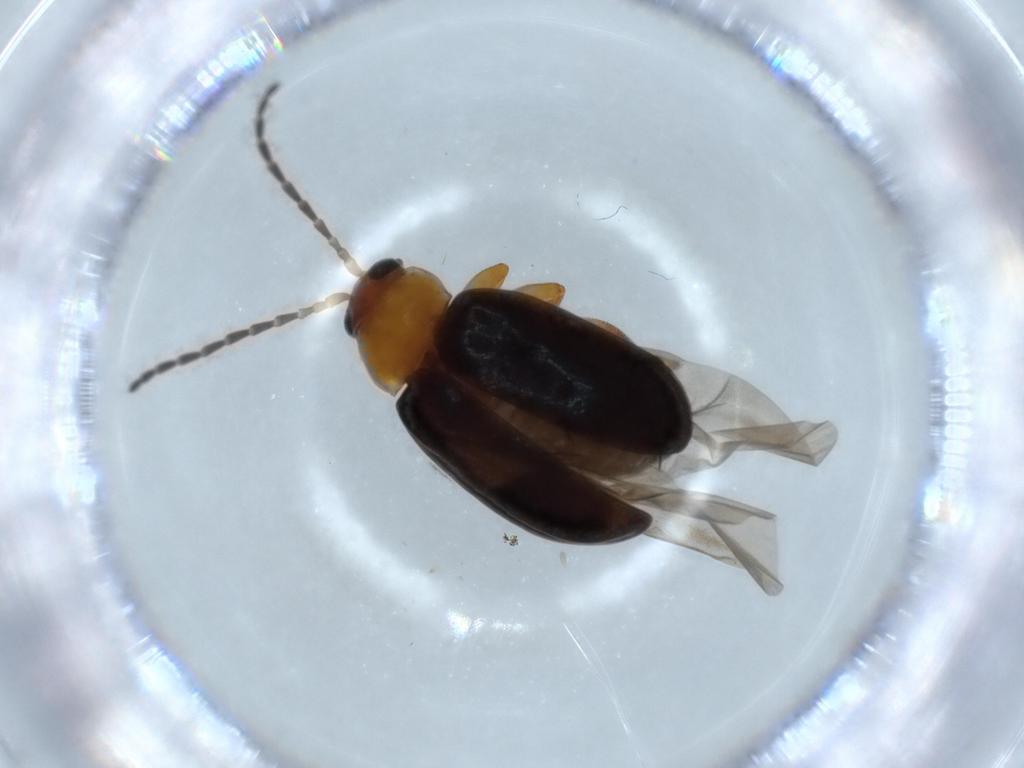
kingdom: Animalia
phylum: Arthropoda
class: Insecta
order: Coleoptera
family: Chrysomelidae
